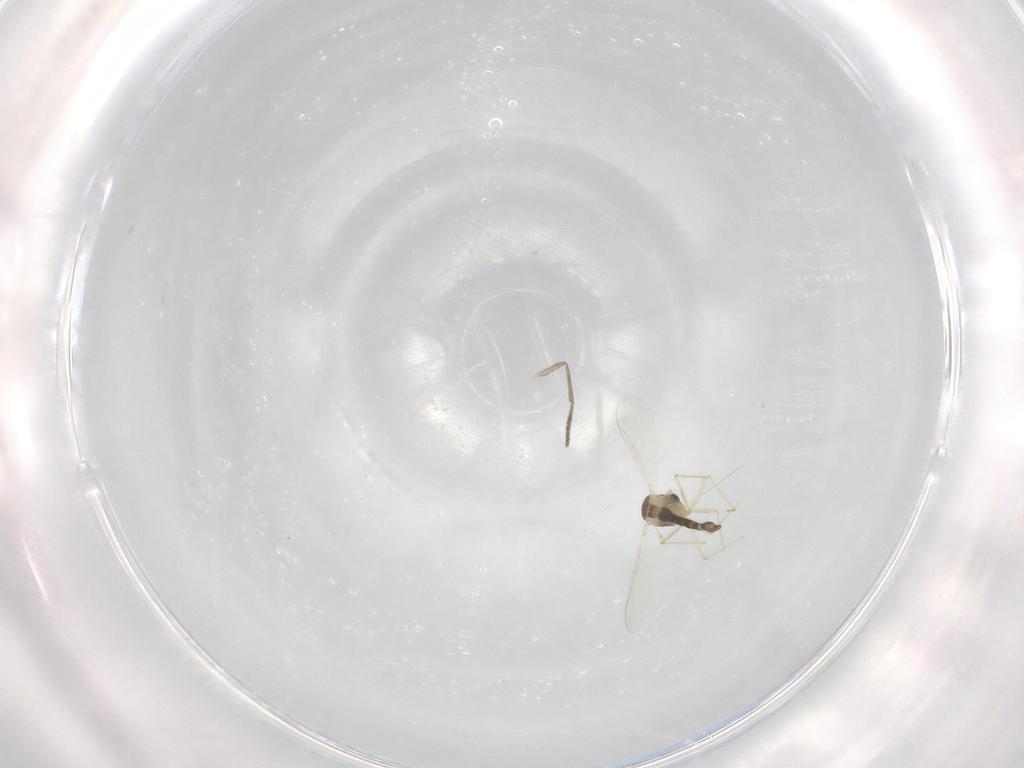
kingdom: Animalia
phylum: Arthropoda
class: Insecta
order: Diptera
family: Chironomidae
